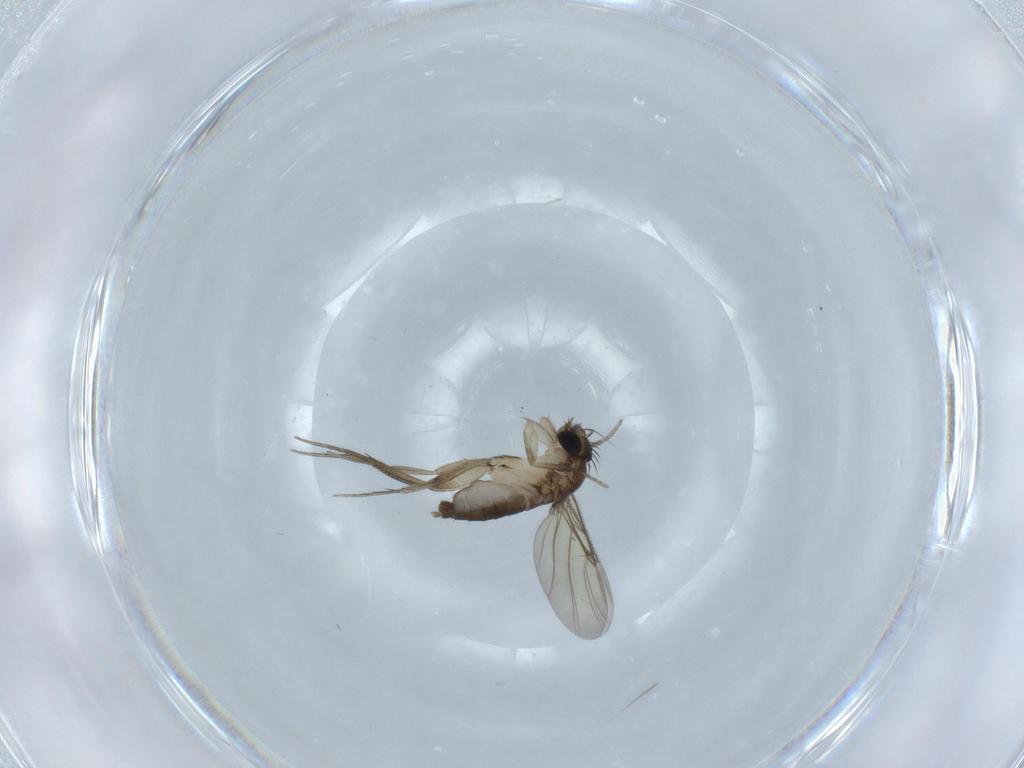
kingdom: Animalia
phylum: Arthropoda
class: Insecta
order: Diptera
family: Phoridae
